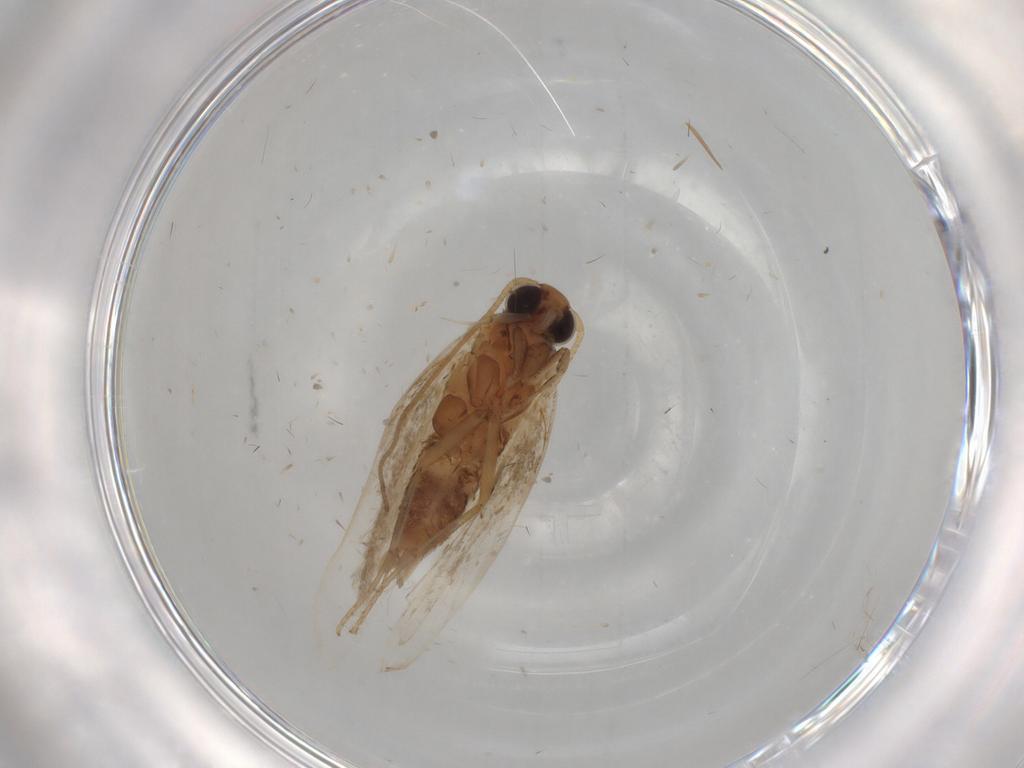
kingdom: Animalia
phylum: Arthropoda
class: Insecta
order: Lepidoptera
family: Gelechiidae
